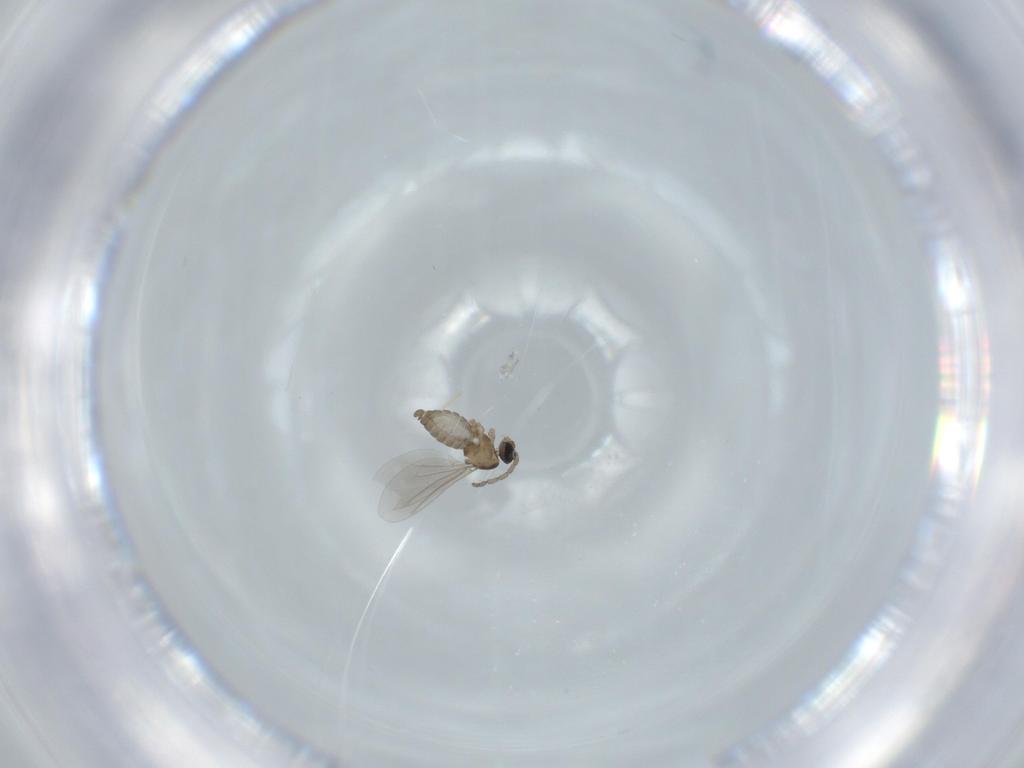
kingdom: Animalia
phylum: Arthropoda
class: Insecta
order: Diptera
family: Cecidomyiidae
